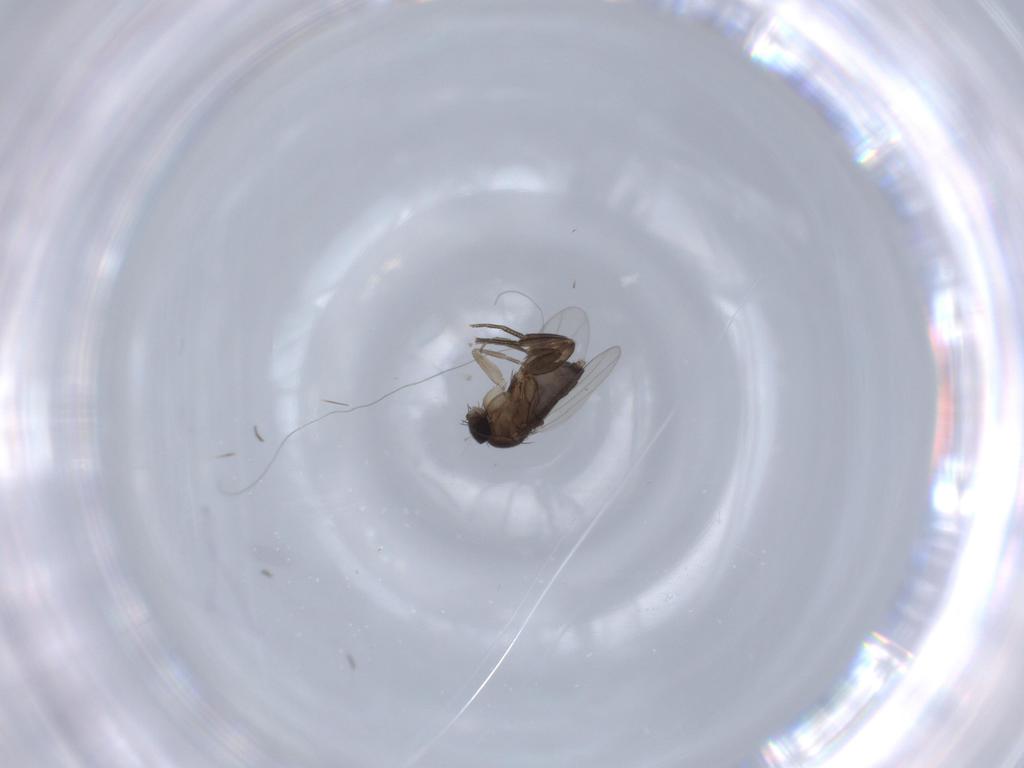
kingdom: Animalia
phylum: Arthropoda
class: Insecta
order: Diptera
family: Phoridae
